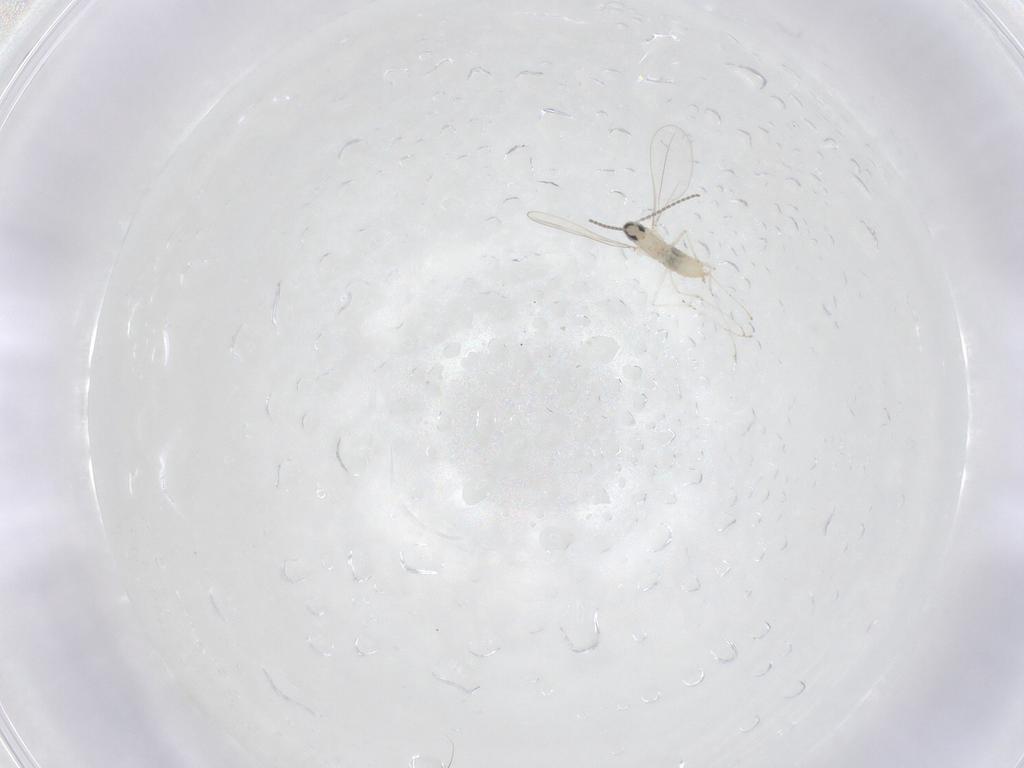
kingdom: Animalia
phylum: Arthropoda
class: Insecta
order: Diptera
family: Cecidomyiidae
